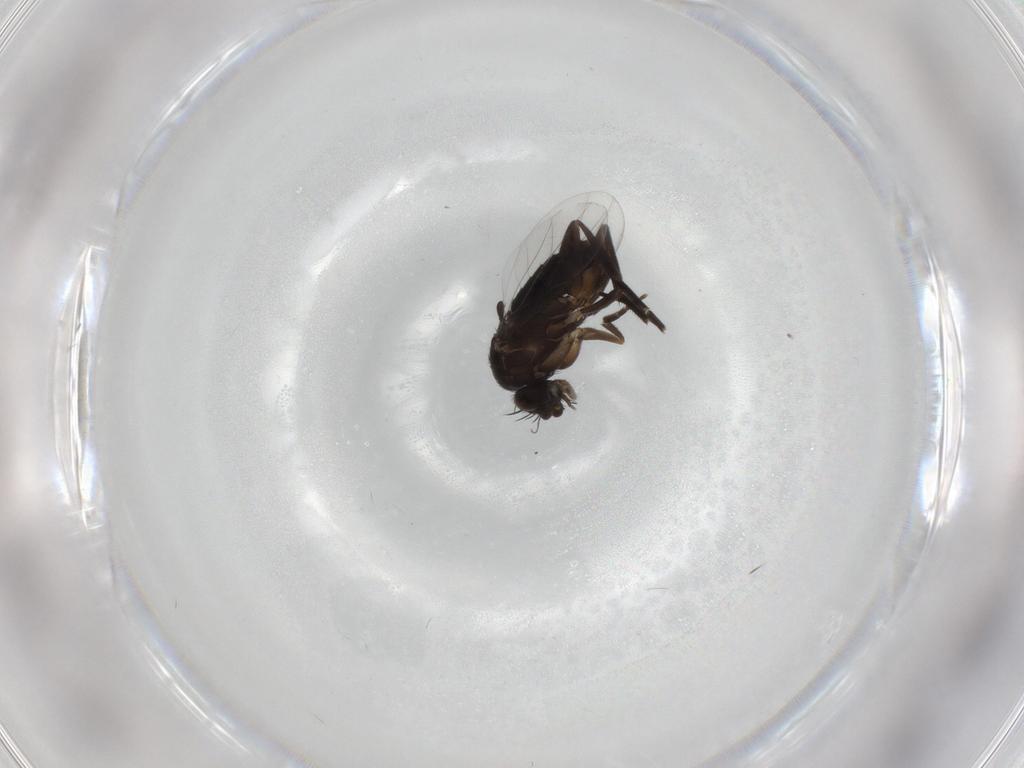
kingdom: Animalia
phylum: Arthropoda
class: Insecta
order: Diptera
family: Phoridae
